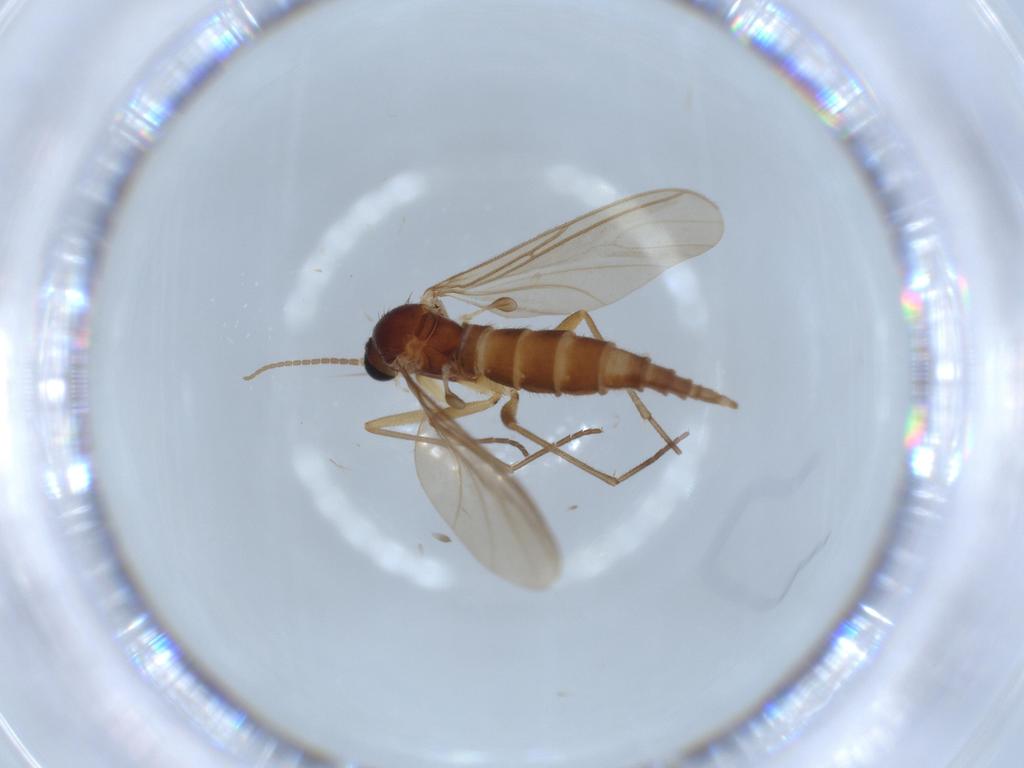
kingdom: Animalia
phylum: Arthropoda
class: Insecta
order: Diptera
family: Sciaridae
